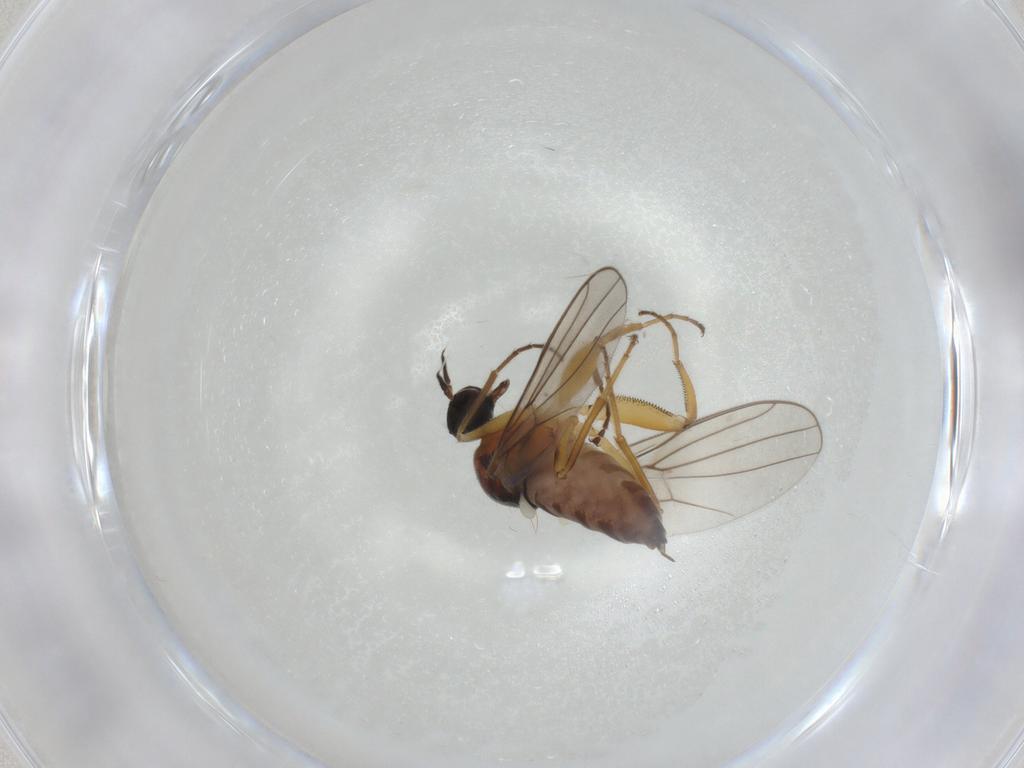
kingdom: Animalia
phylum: Arthropoda
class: Insecta
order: Diptera
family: Hybotidae
